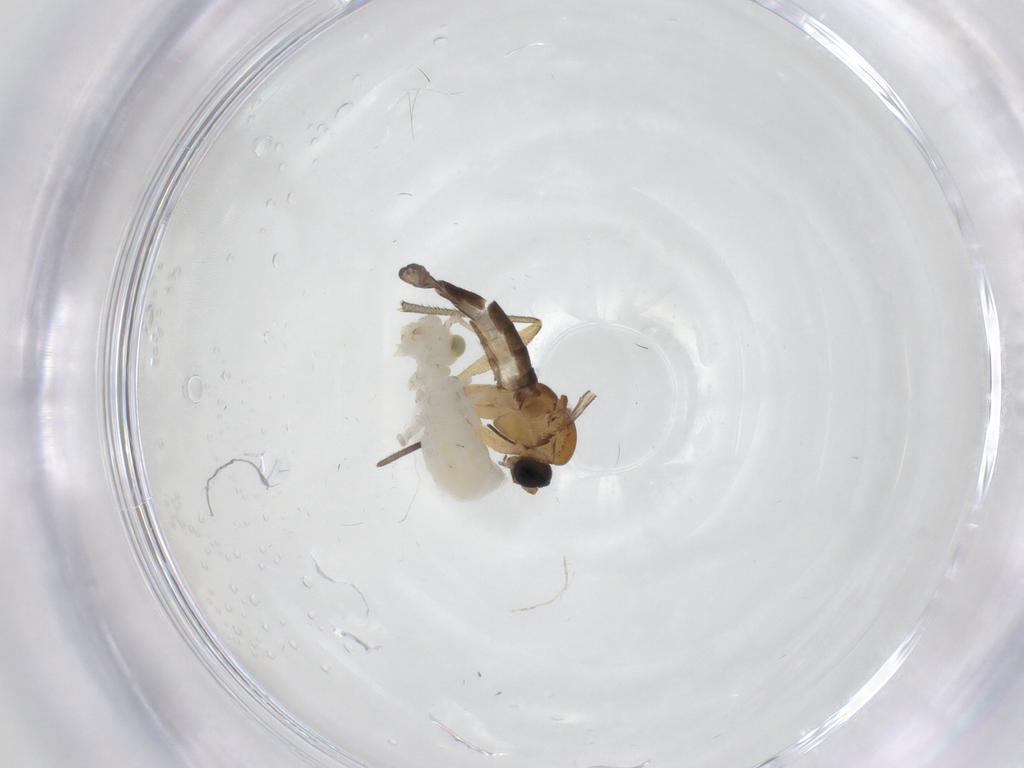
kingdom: Animalia
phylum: Arthropoda
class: Insecta
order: Diptera
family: Sciaridae
